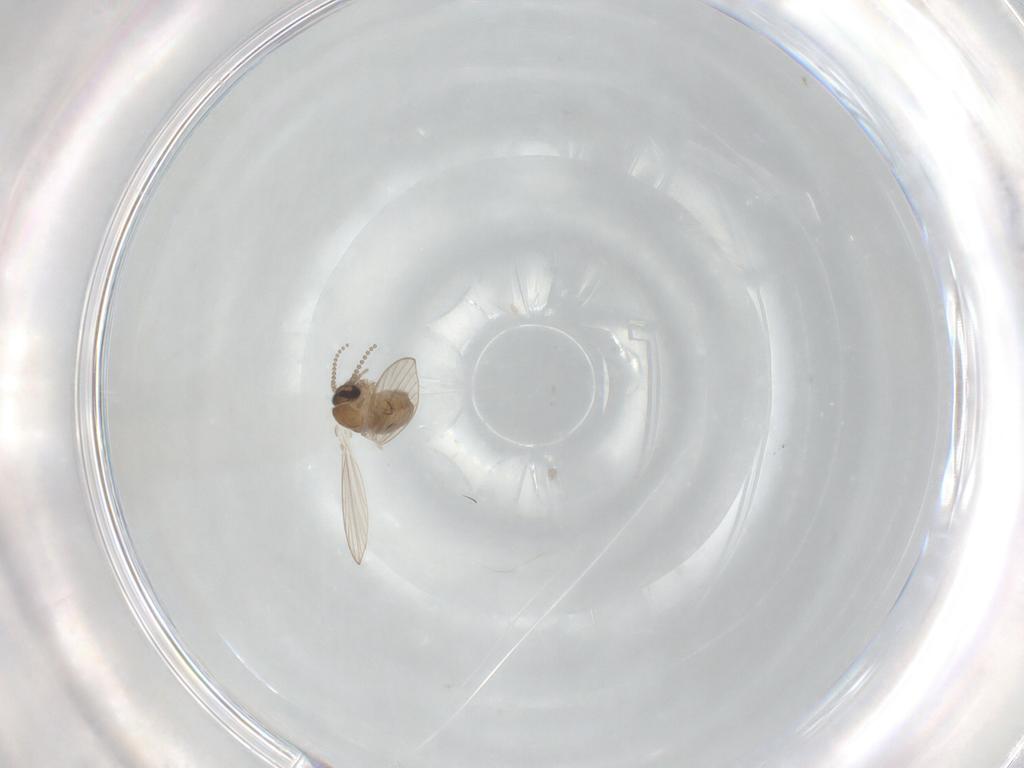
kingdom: Animalia
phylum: Arthropoda
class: Insecta
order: Diptera
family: Psychodidae
